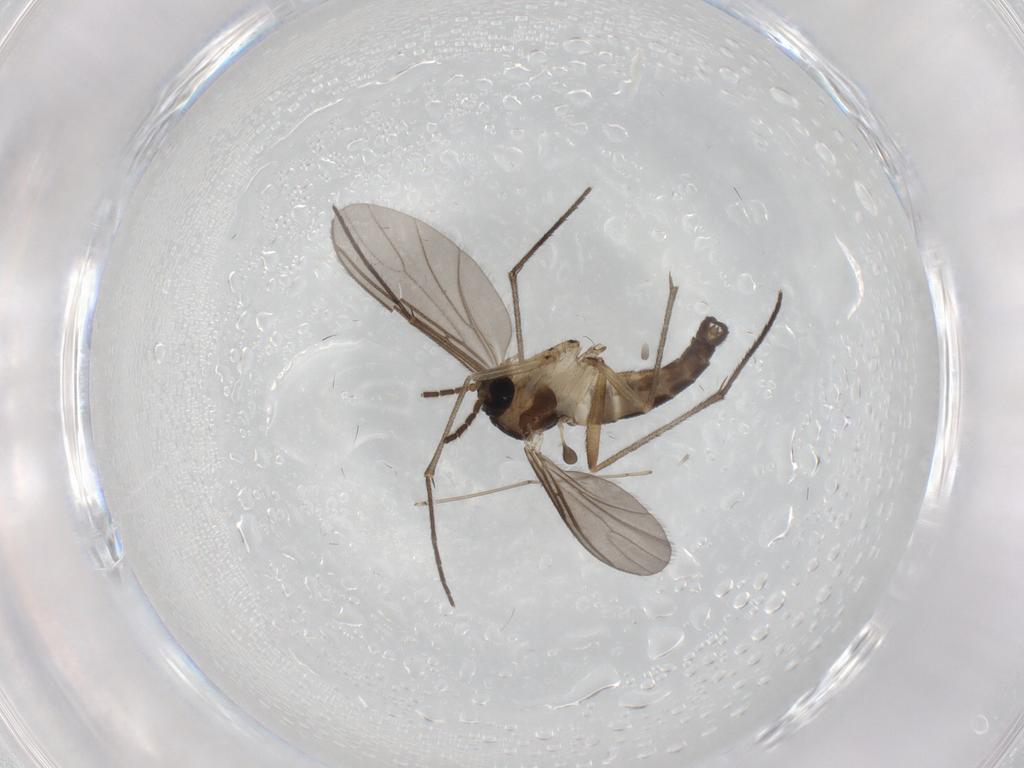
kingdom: Animalia
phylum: Arthropoda
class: Insecta
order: Diptera
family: Sciaridae
